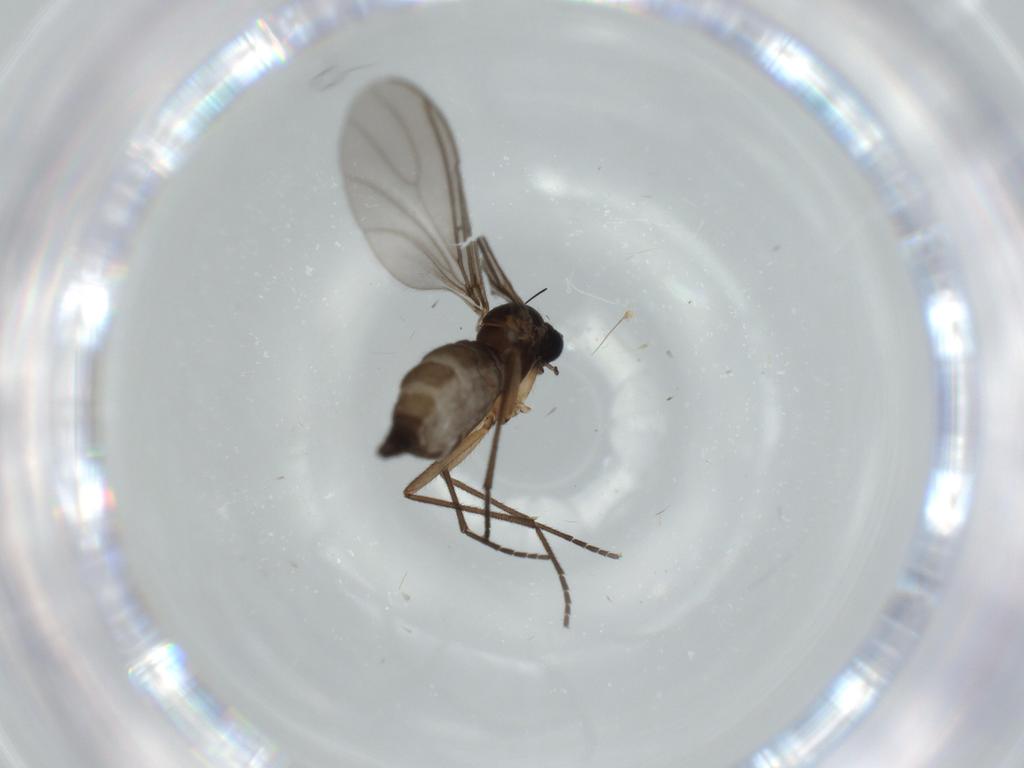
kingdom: Animalia
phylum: Arthropoda
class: Insecta
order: Diptera
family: Sciaridae
